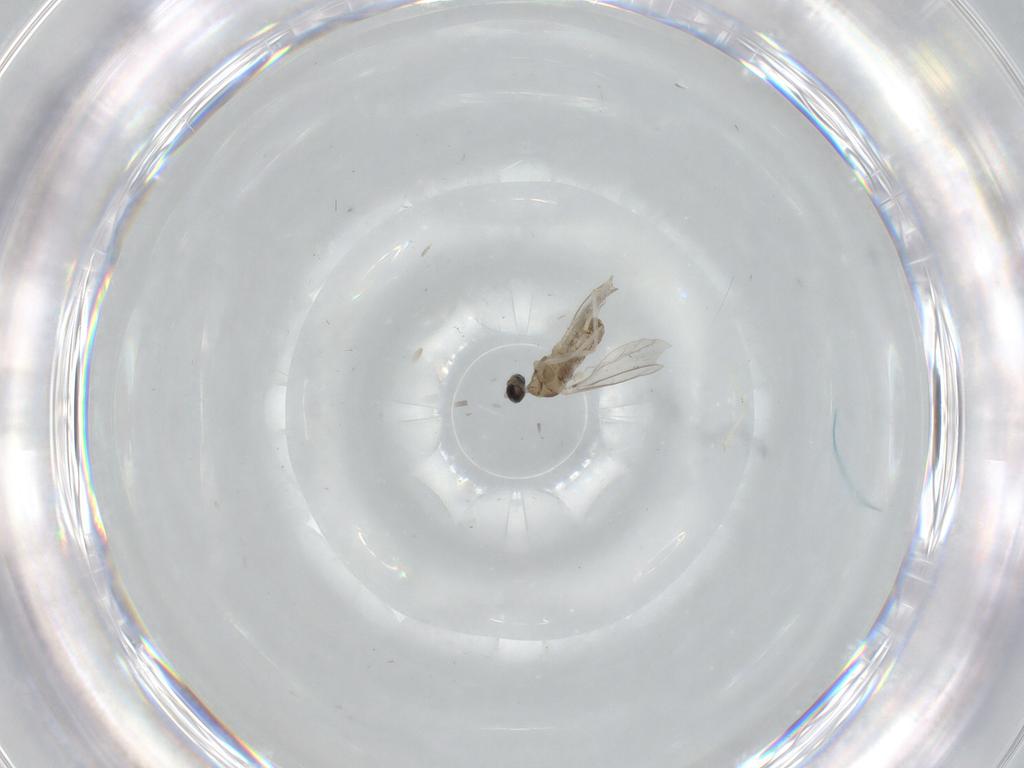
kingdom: Animalia
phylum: Arthropoda
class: Insecta
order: Diptera
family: Cecidomyiidae
